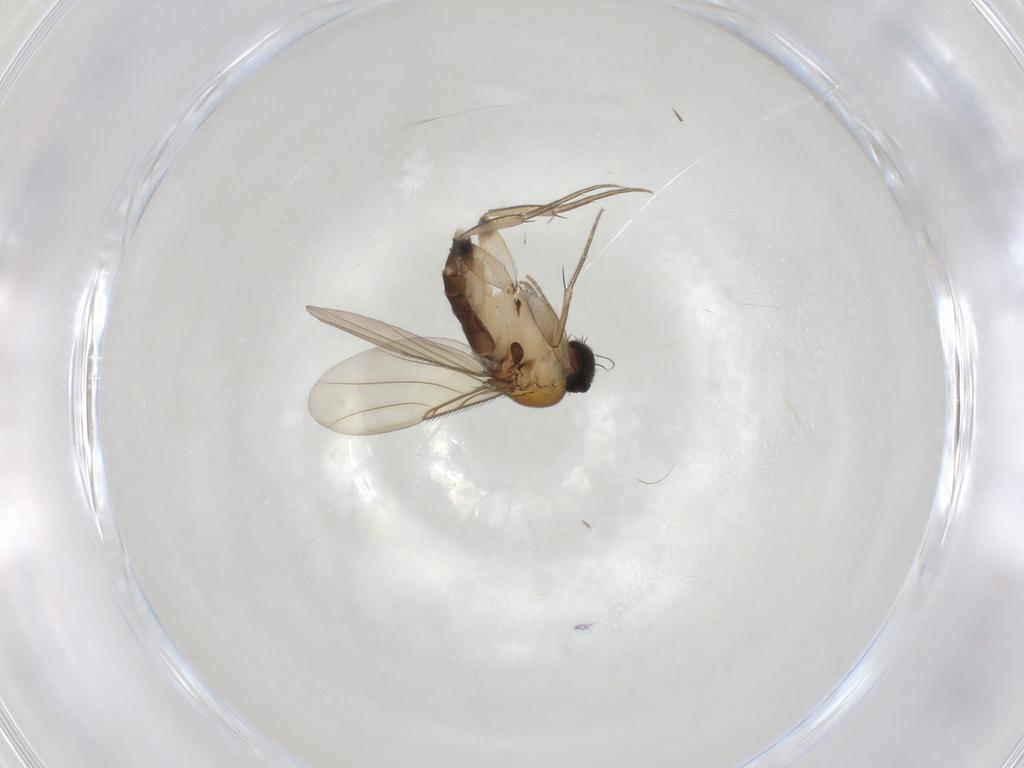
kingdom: Animalia
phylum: Arthropoda
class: Insecta
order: Diptera
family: Phoridae
